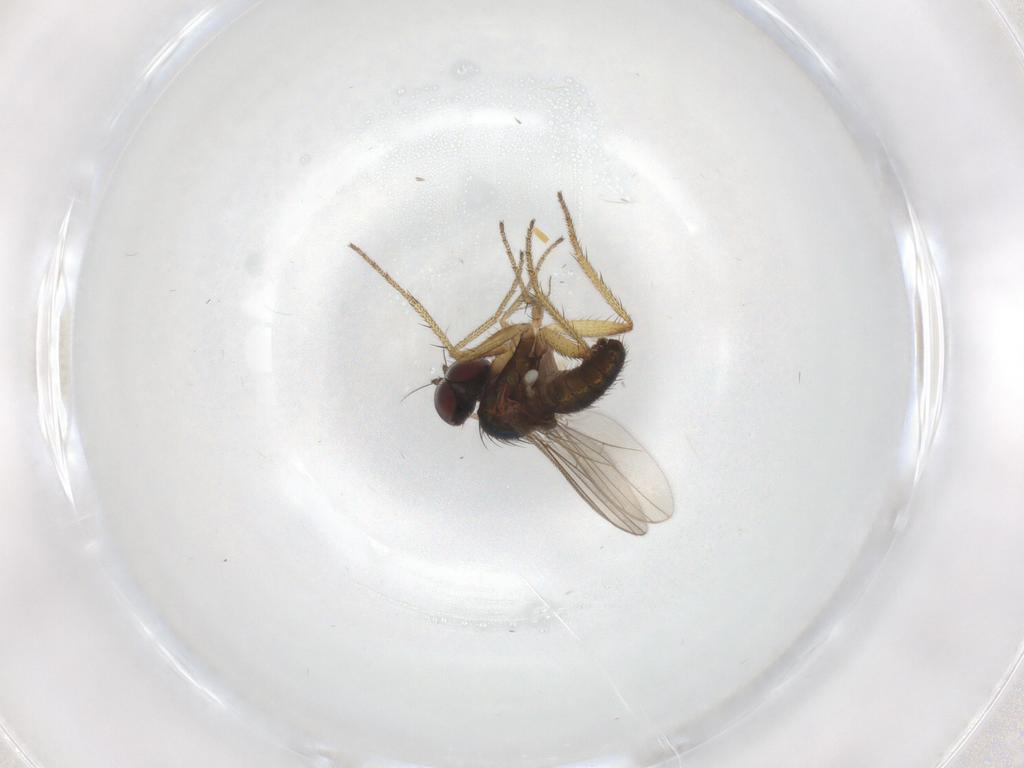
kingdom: Animalia
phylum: Arthropoda
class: Insecta
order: Diptera
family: Dolichopodidae
